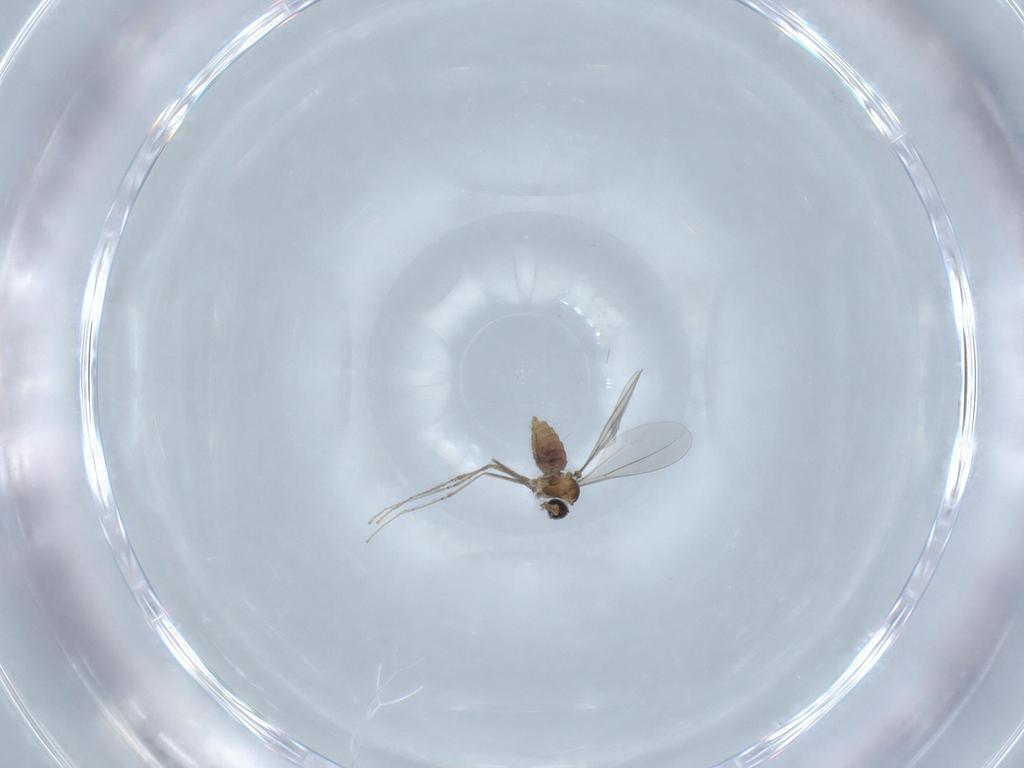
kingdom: Animalia
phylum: Arthropoda
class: Insecta
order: Diptera
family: Cecidomyiidae
